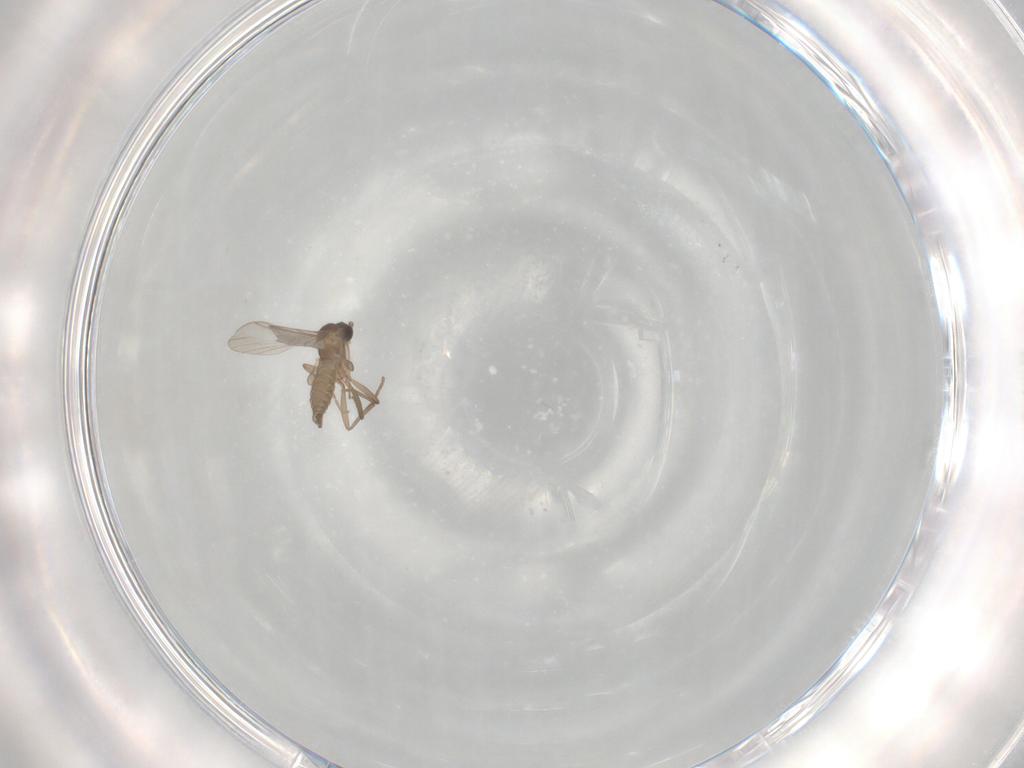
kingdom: Animalia
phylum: Arthropoda
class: Insecta
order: Diptera
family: Sciaridae
